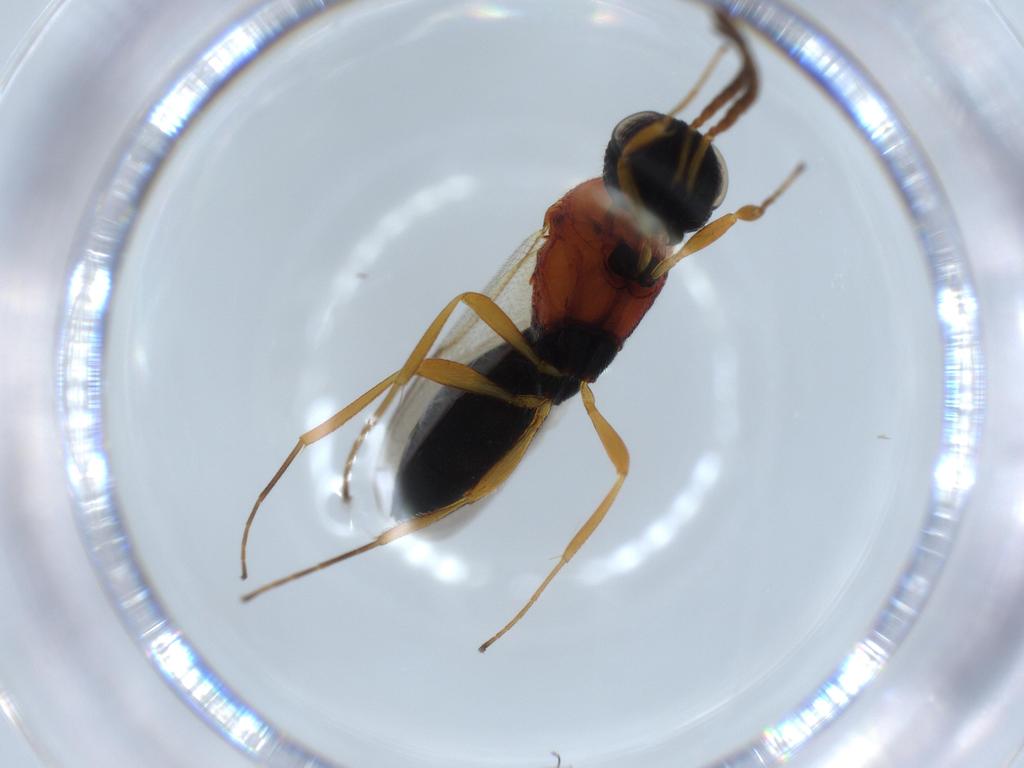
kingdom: Animalia
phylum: Arthropoda
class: Insecta
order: Hymenoptera
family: Scelionidae
